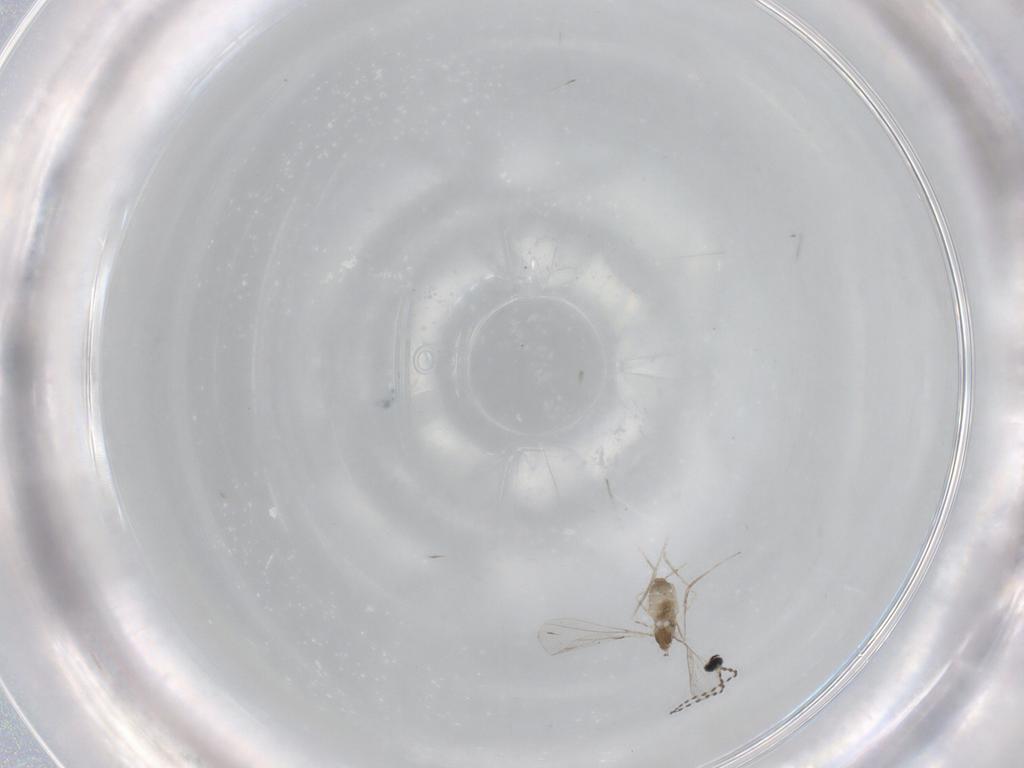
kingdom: Animalia
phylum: Arthropoda
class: Insecta
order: Diptera
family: Cecidomyiidae
